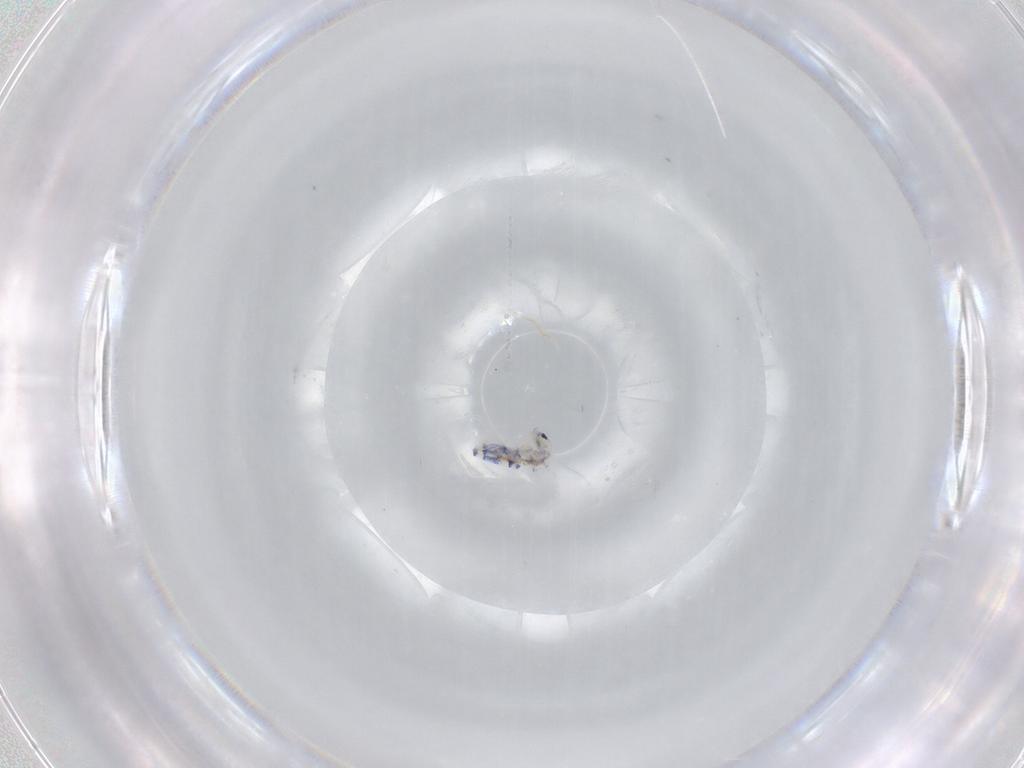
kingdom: Animalia
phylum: Arthropoda
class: Collembola
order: Entomobryomorpha
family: Entomobryidae
